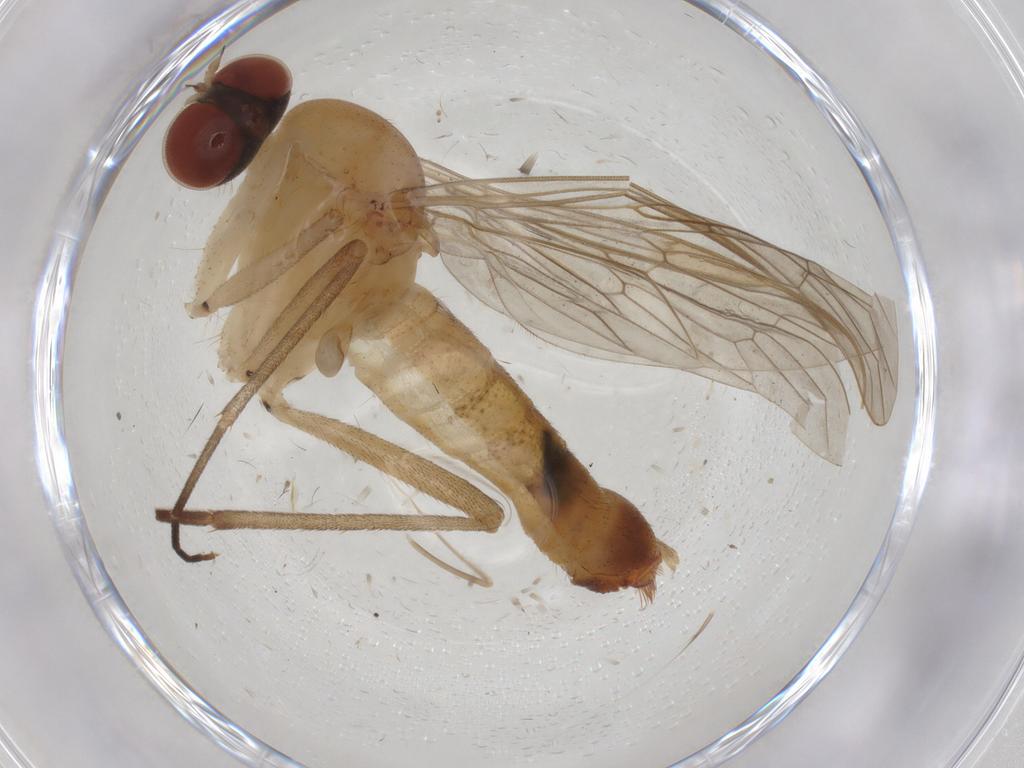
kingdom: Animalia
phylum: Arthropoda
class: Insecta
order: Diptera
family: Apsilocephalidae
